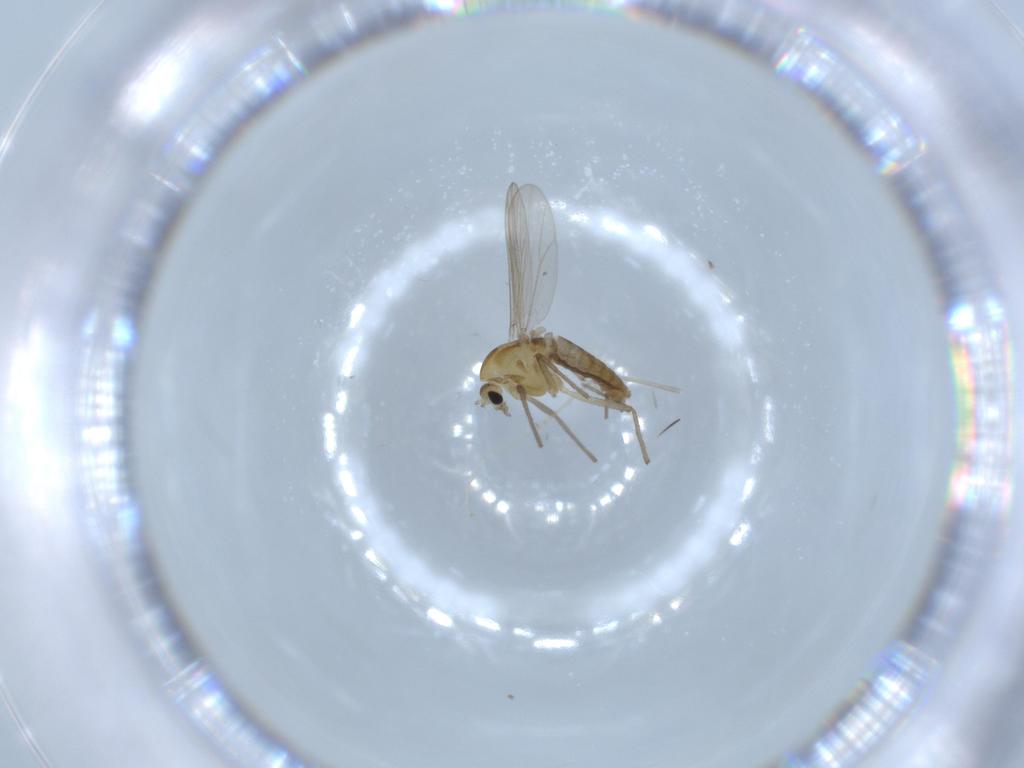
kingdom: Animalia
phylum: Arthropoda
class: Insecta
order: Diptera
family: Chironomidae
